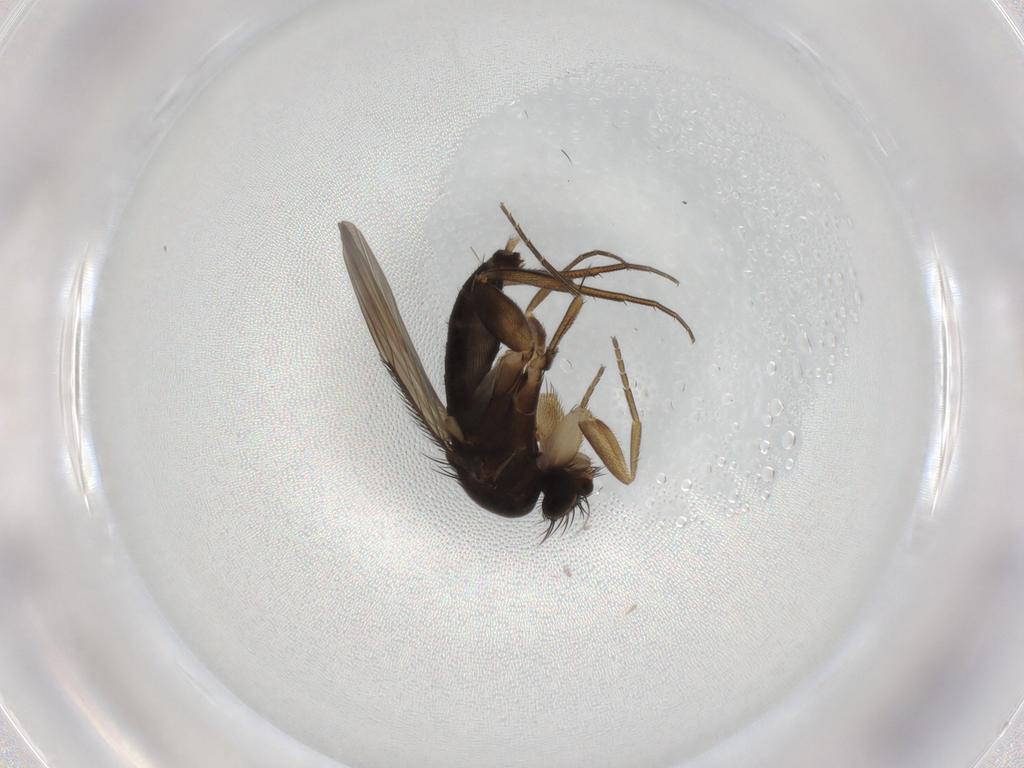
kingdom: Animalia
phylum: Arthropoda
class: Insecta
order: Diptera
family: Phoridae
